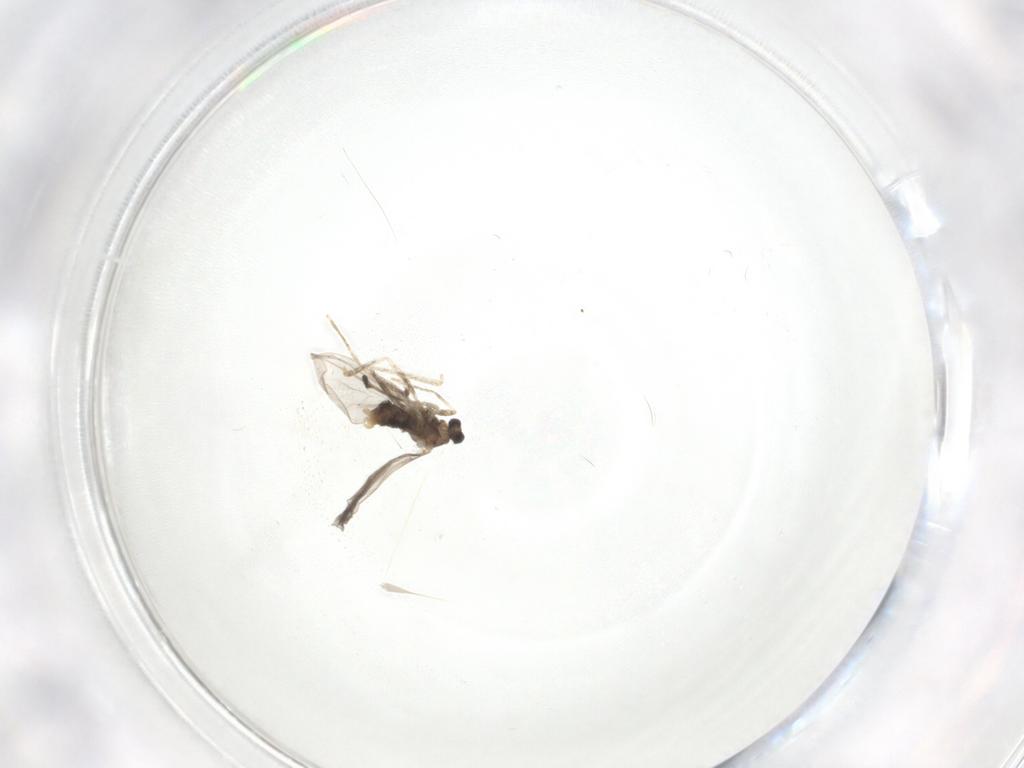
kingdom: Animalia
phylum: Arthropoda
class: Insecta
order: Diptera
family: Cecidomyiidae
